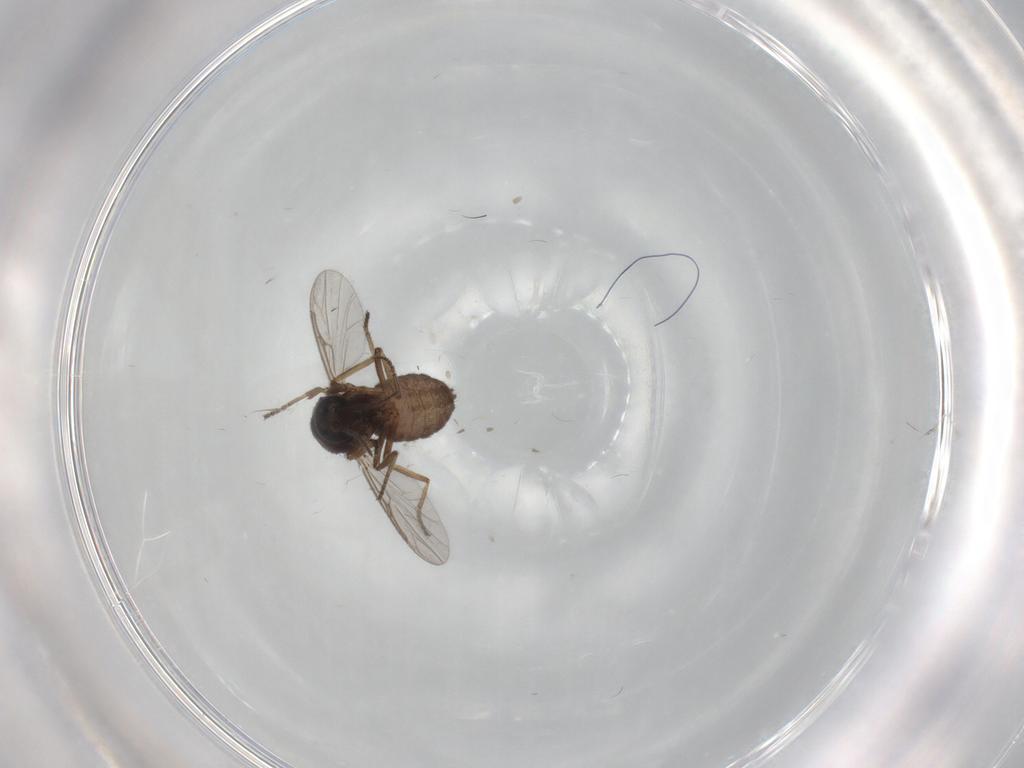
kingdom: Animalia
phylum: Arthropoda
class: Insecta
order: Diptera
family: Ceratopogonidae
